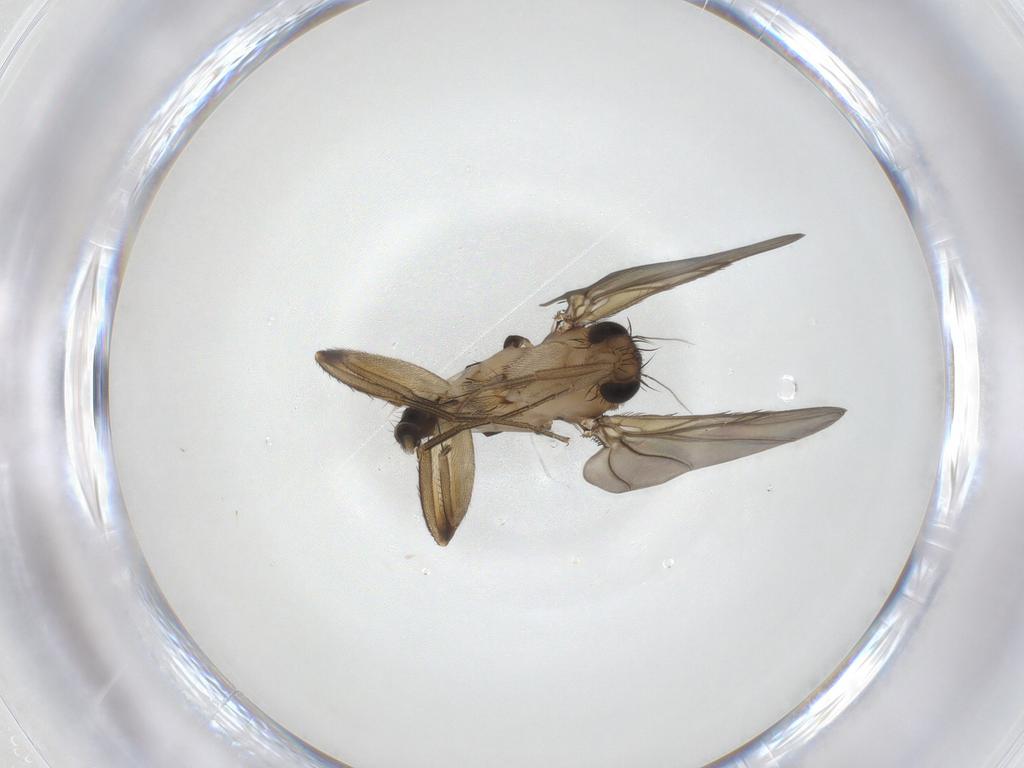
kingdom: Animalia
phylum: Arthropoda
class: Insecta
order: Diptera
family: Phoridae
